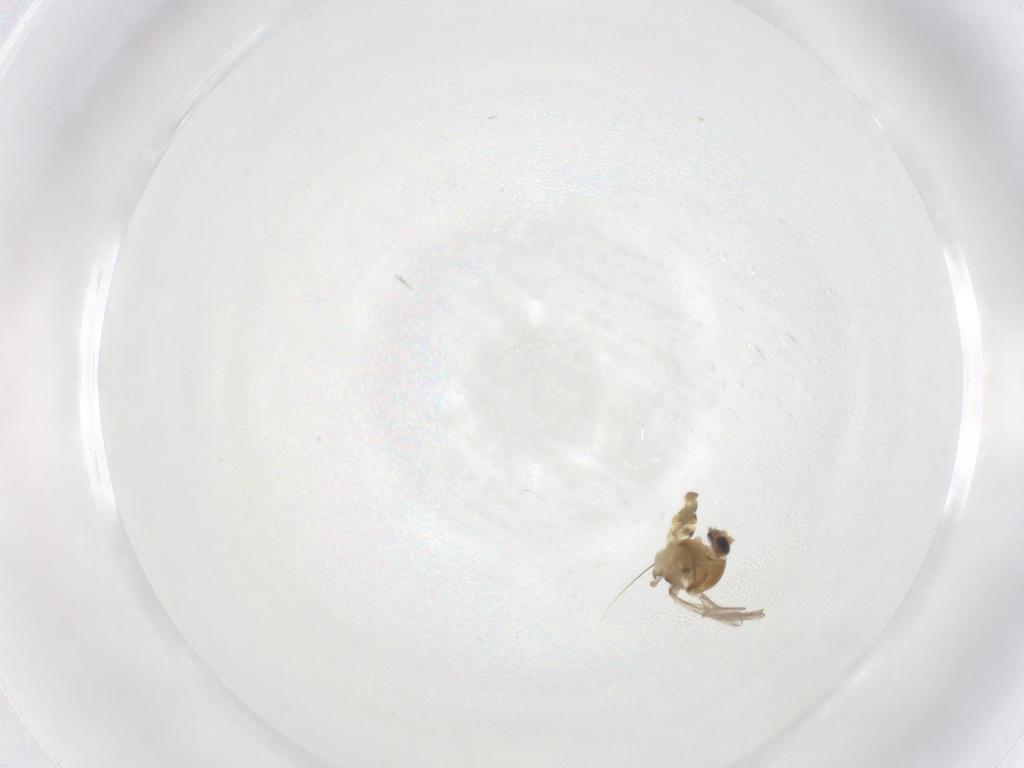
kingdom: Animalia
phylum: Arthropoda
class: Insecta
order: Diptera
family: Chironomidae
